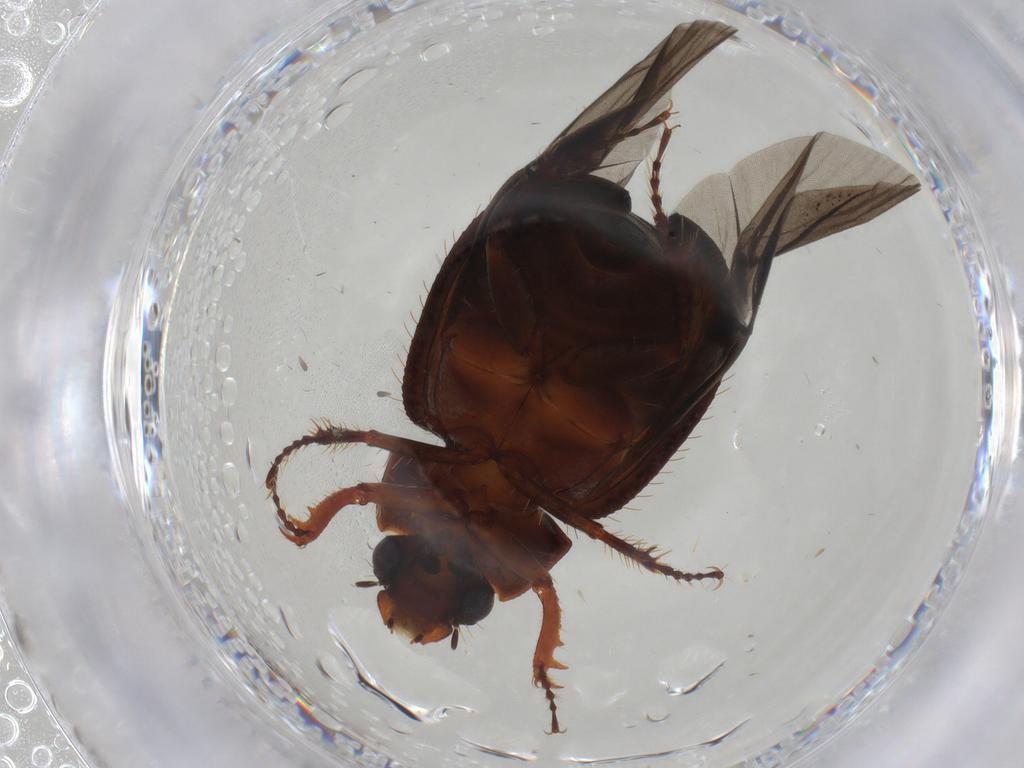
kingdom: Animalia
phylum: Arthropoda
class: Insecta
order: Coleoptera
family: Hybosoridae
